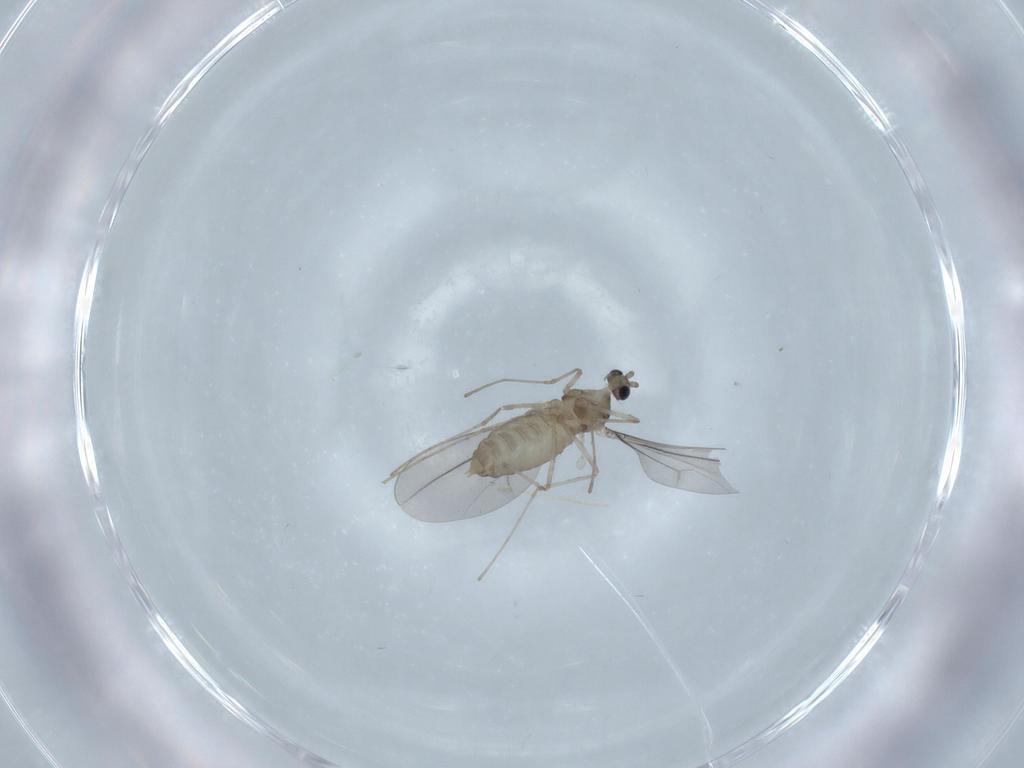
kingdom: Animalia
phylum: Arthropoda
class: Insecta
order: Diptera
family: Cecidomyiidae
